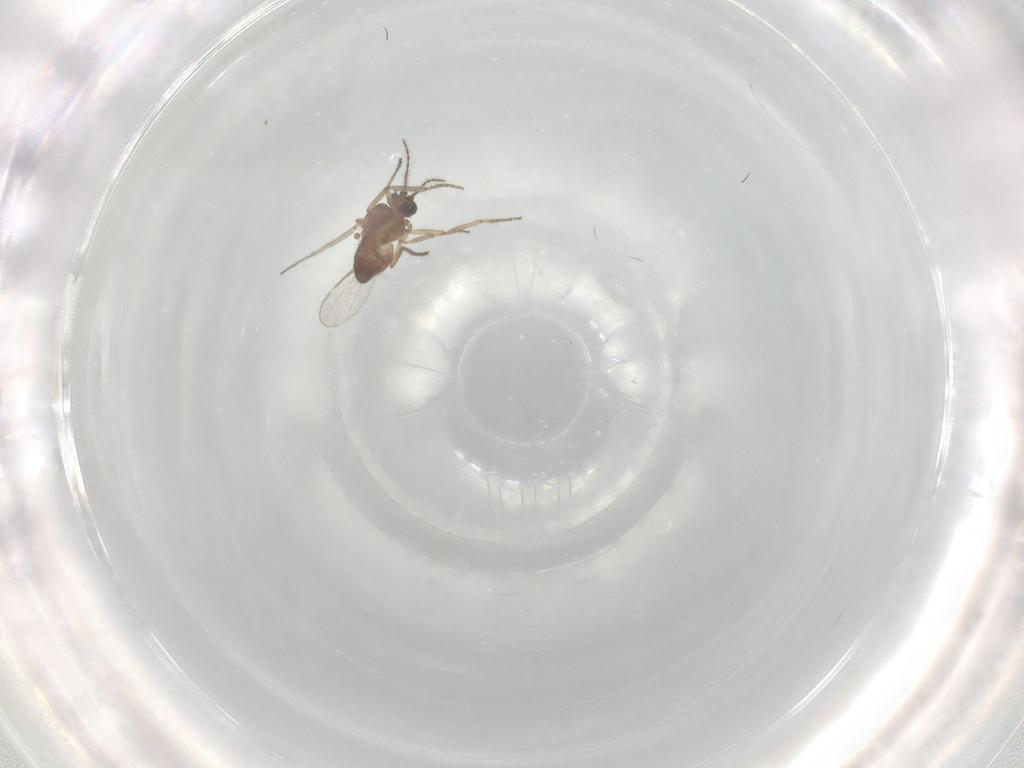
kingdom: Animalia
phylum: Arthropoda
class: Insecta
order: Diptera
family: Ceratopogonidae
